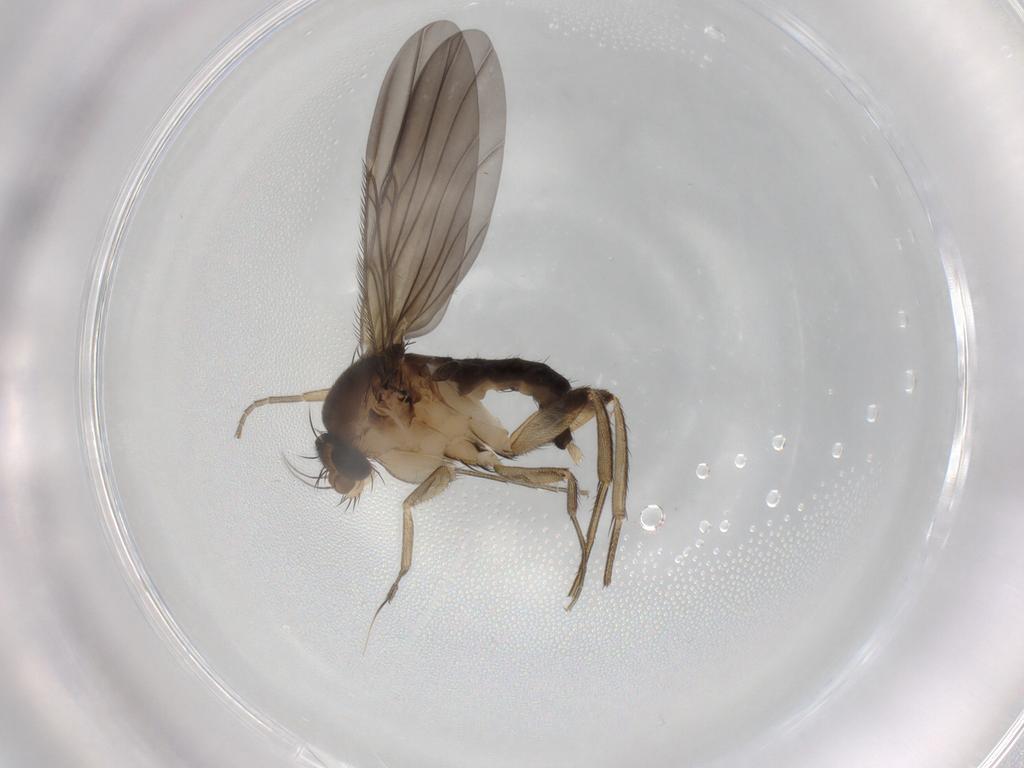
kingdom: Animalia
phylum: Arthropoda
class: Insecta
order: Diptera
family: Phoridae
